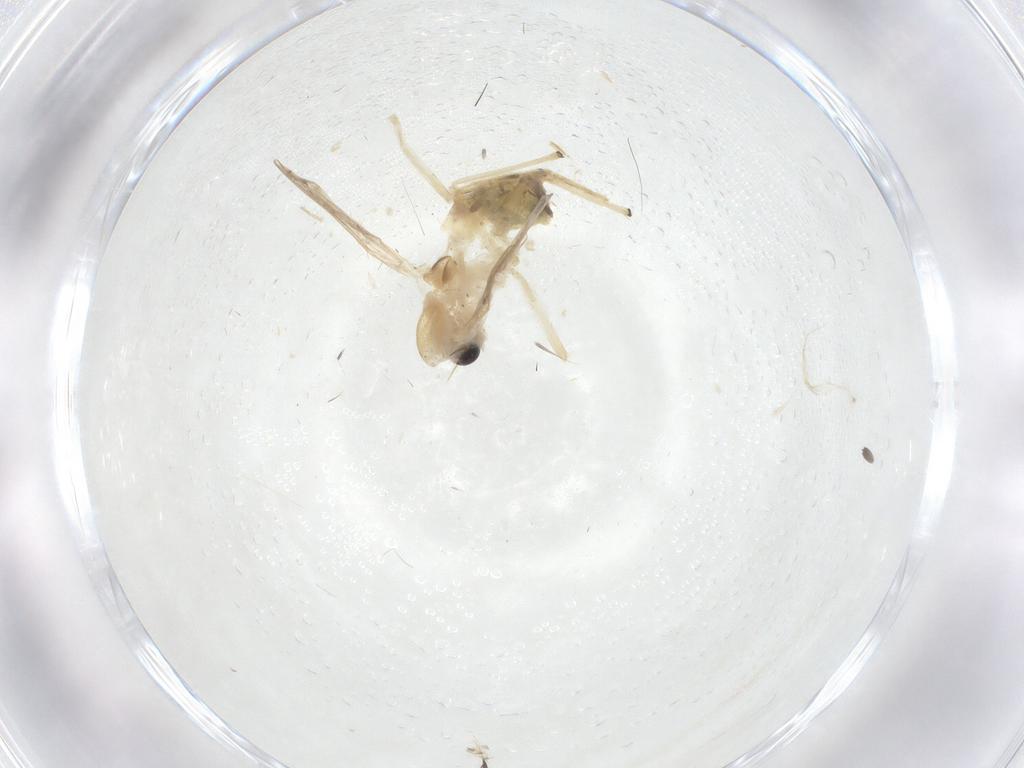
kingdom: Animalia
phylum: Arthropoda
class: Insecta
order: Diptera
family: Chironomidae
